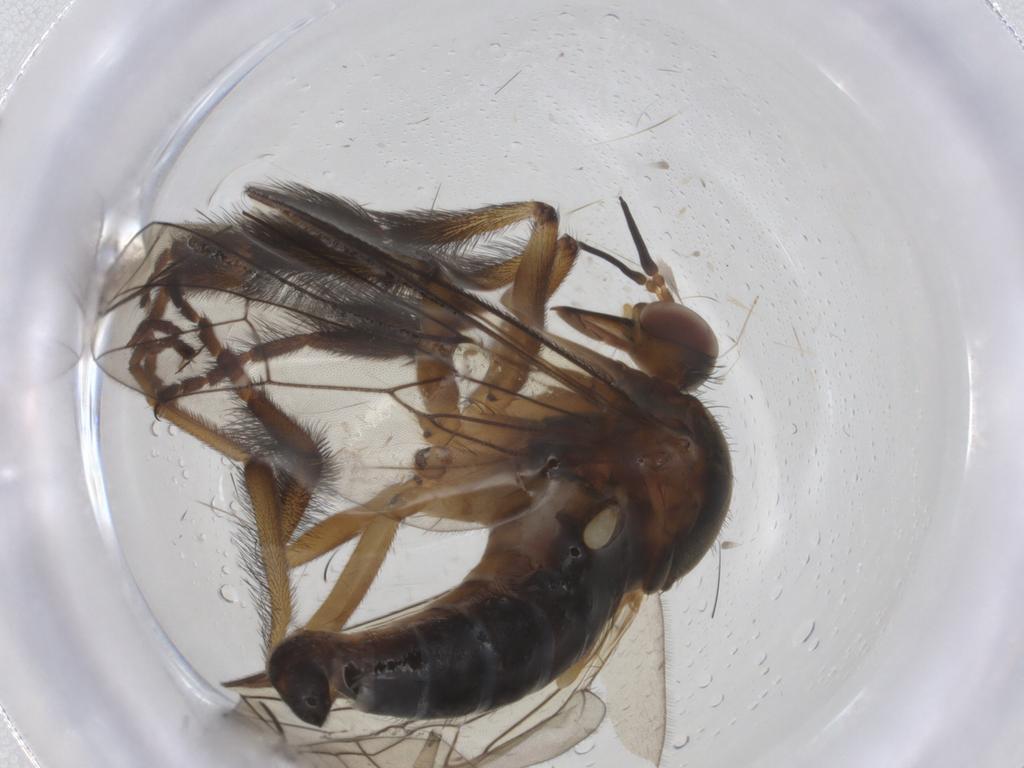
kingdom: Animalia
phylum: Arthropoda
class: Insecta
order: Diptera
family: Empididae
